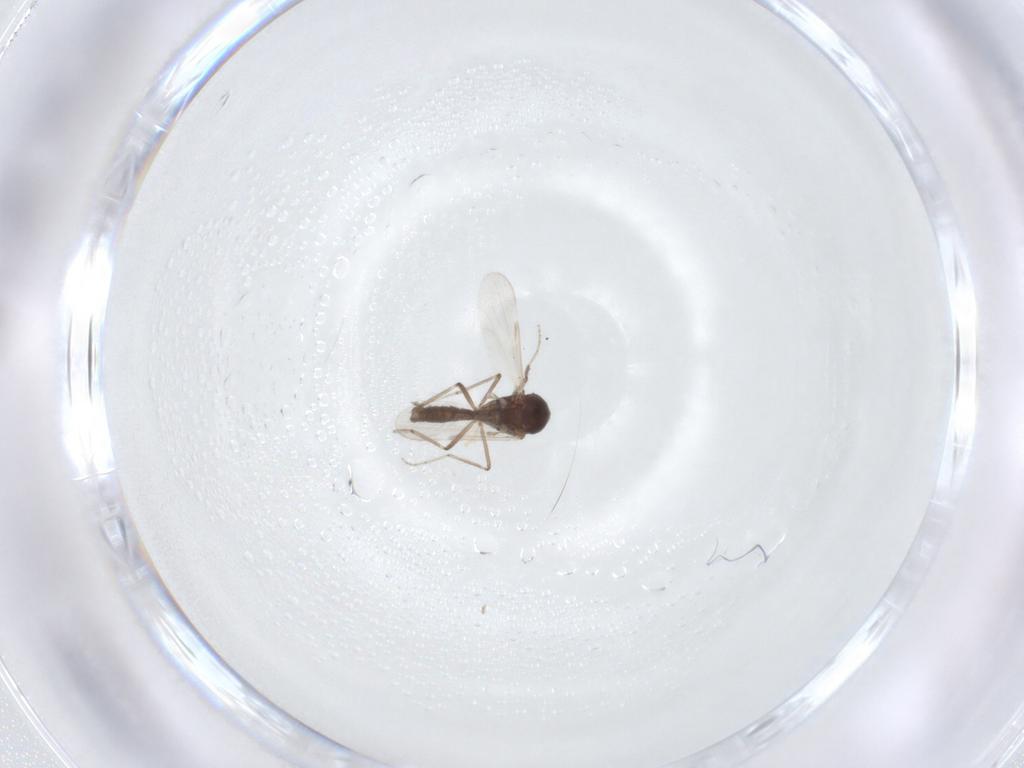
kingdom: Animalia
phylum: Arthropoda
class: Insecta
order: Diptera
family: Ceratopogonidae
